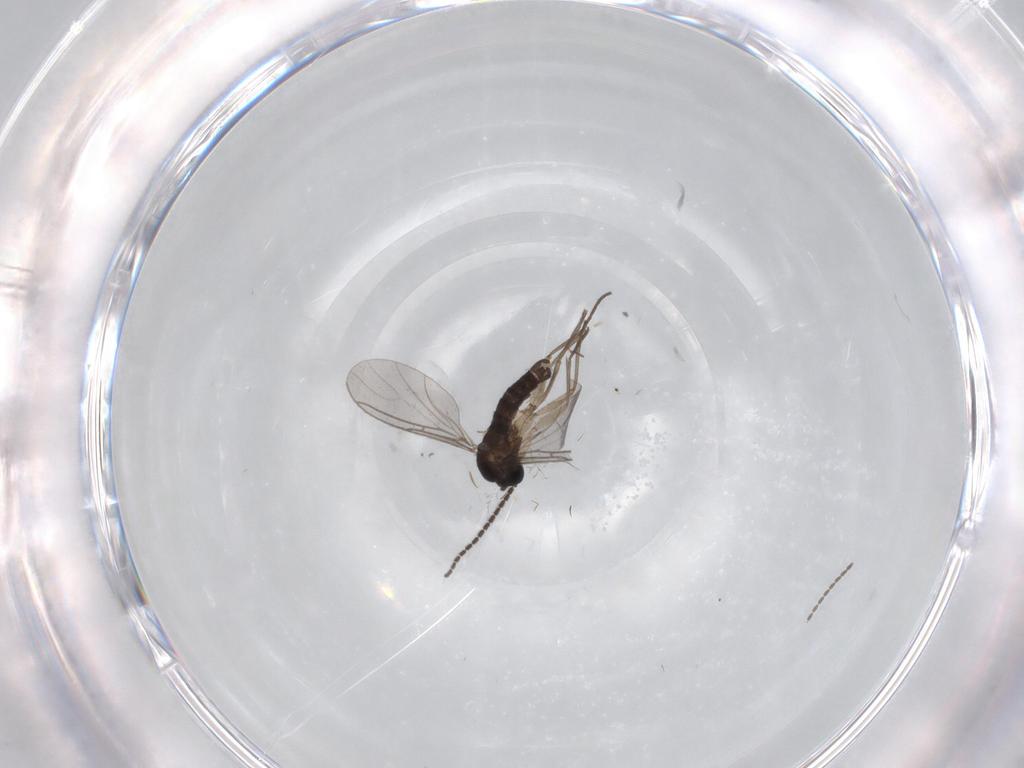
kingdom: Animalia
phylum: Arthropoda
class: Insecta
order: Diptera
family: Sciaridae
